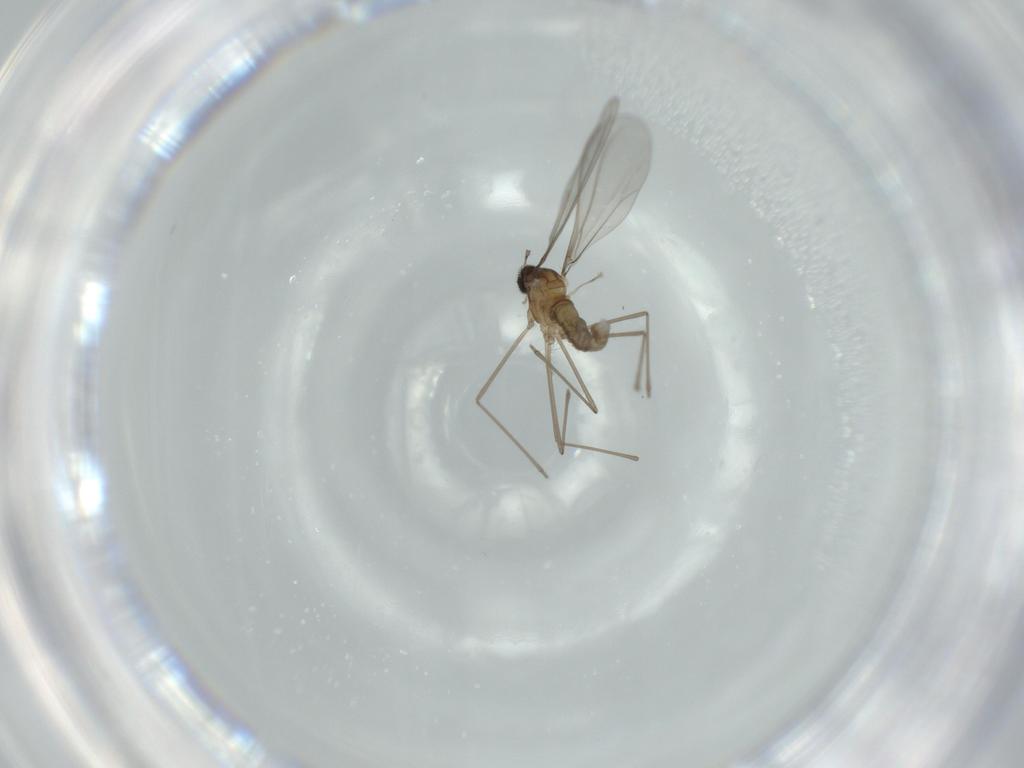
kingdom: Animalia
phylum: Arthropoda
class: Insecta
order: Diptera
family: Cecidomyiidae
